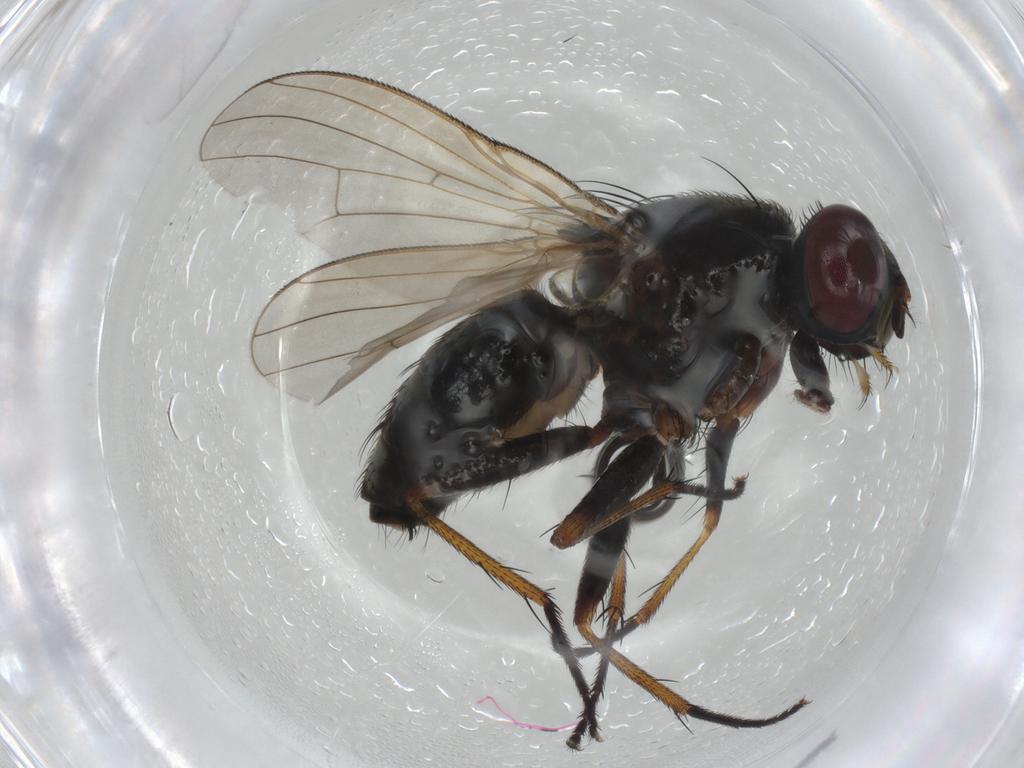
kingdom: Animalia
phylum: Arthropoda
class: Insecta
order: Diptera
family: Muscidae
